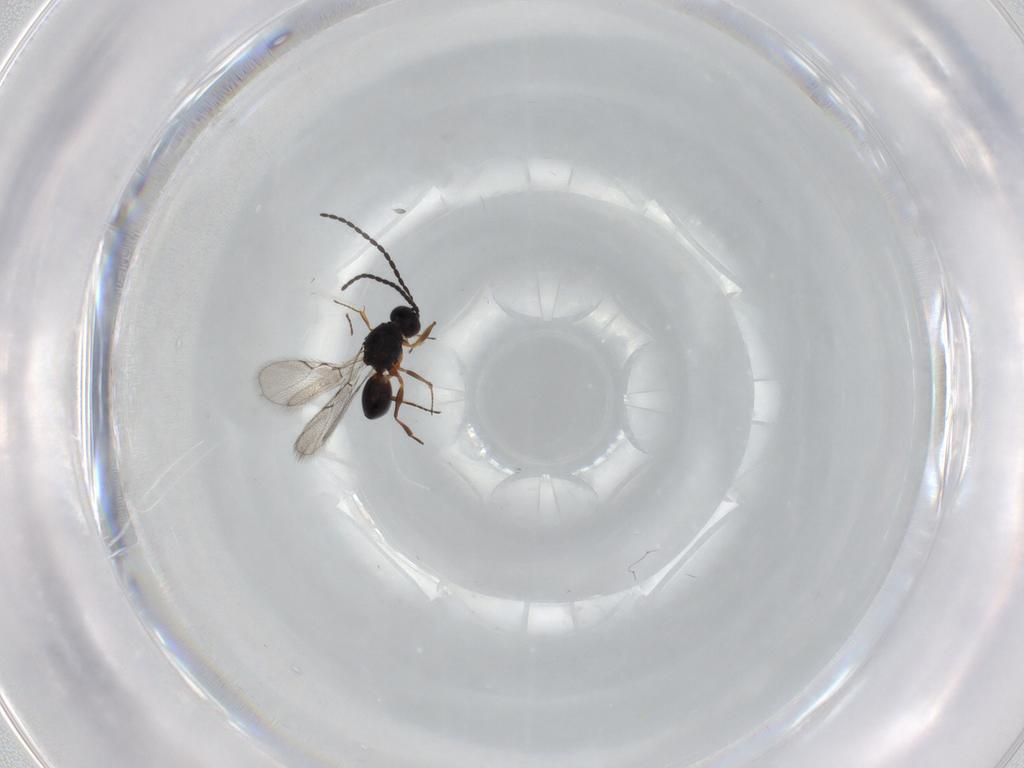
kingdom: Animalia
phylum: Arthropoda
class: Insecta
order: Hymenoptera
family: Figitidae
